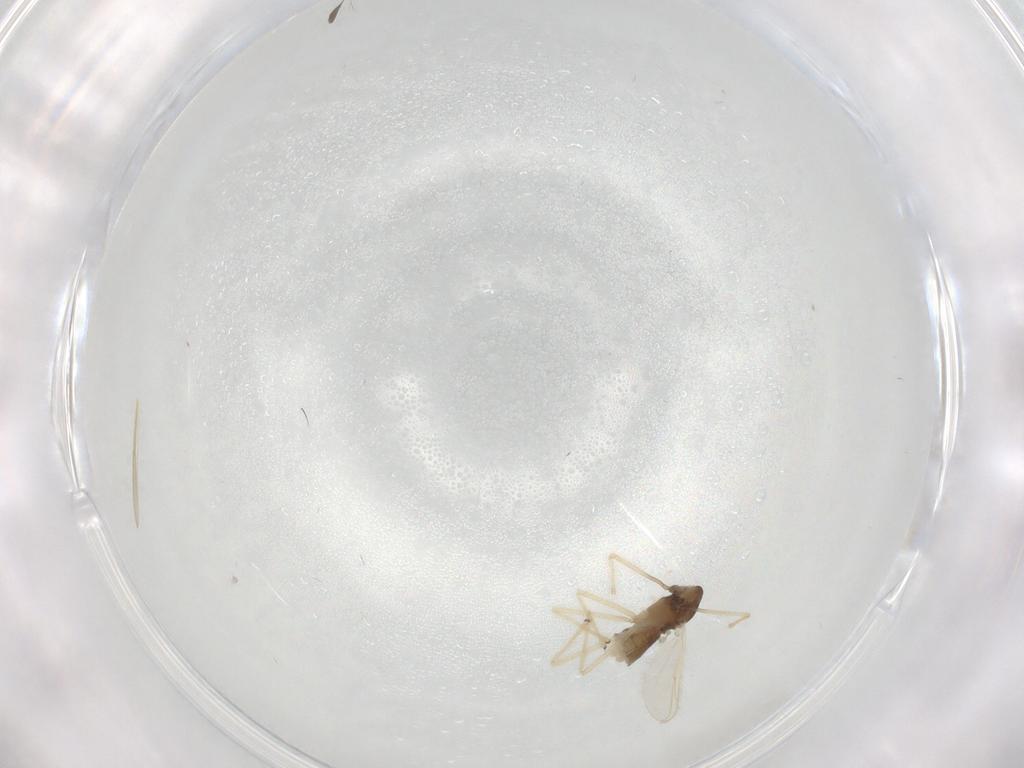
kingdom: Animalia
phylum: Arthropoda
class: Insecta
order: Diptera
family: Chironomidae
